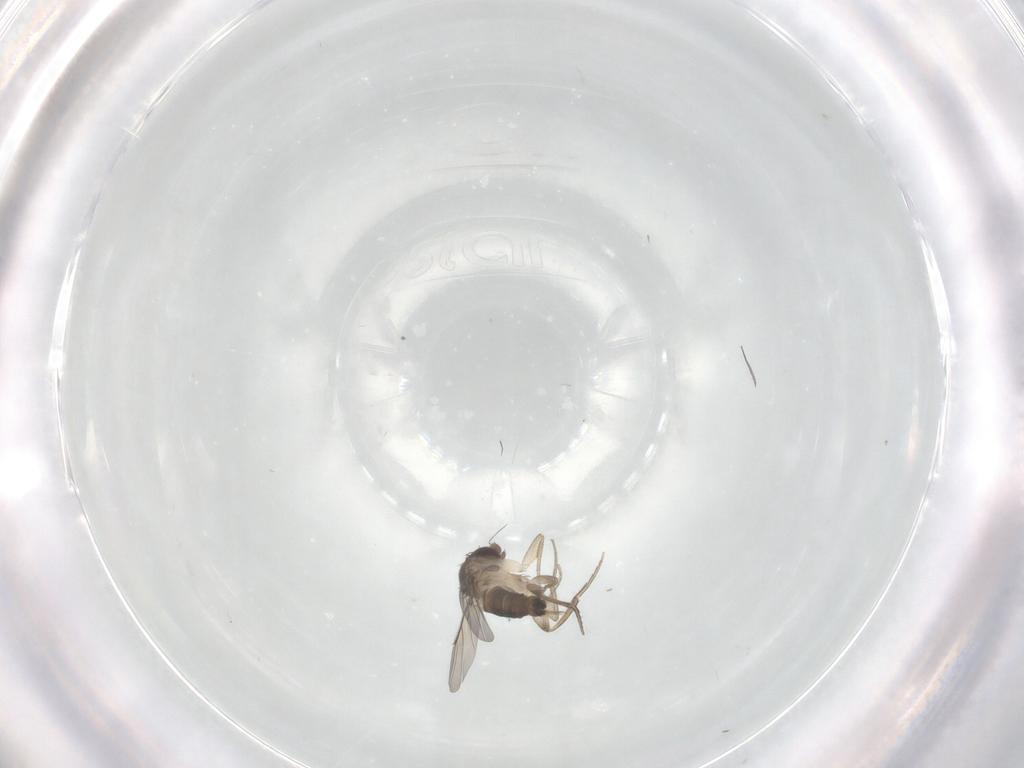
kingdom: Animalia
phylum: Arthropoda
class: Insecta
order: Diptera
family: Phoridae
